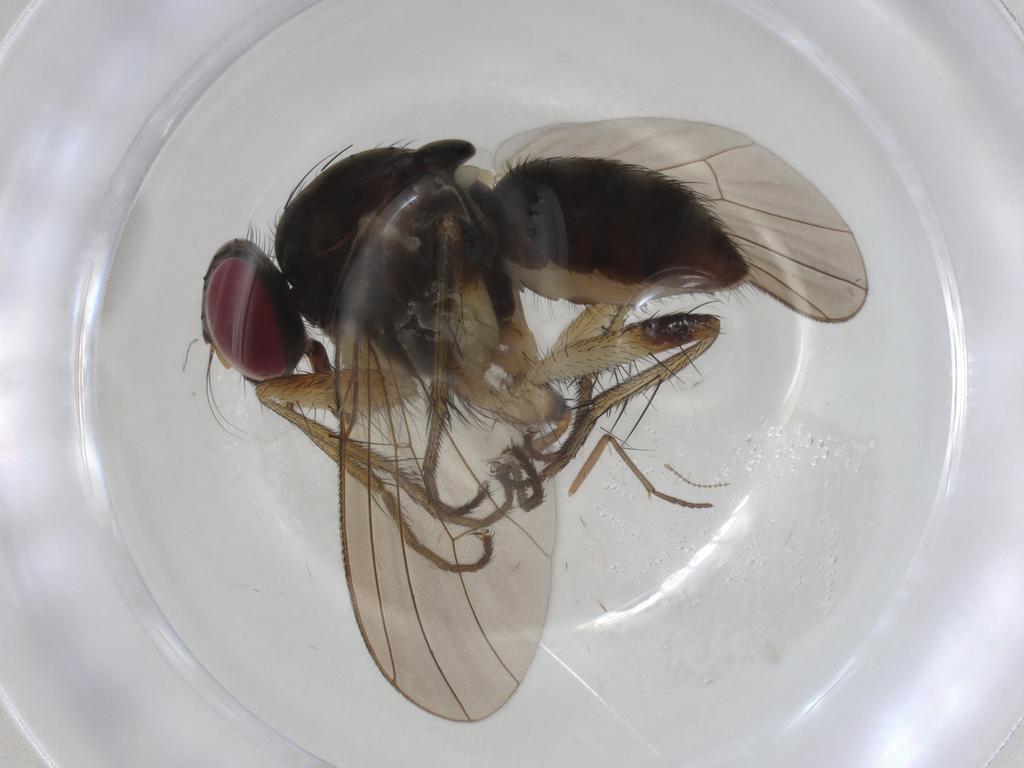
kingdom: Animalia
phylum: Arthropoda
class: Insecta
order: Diptera
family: Muscidae
